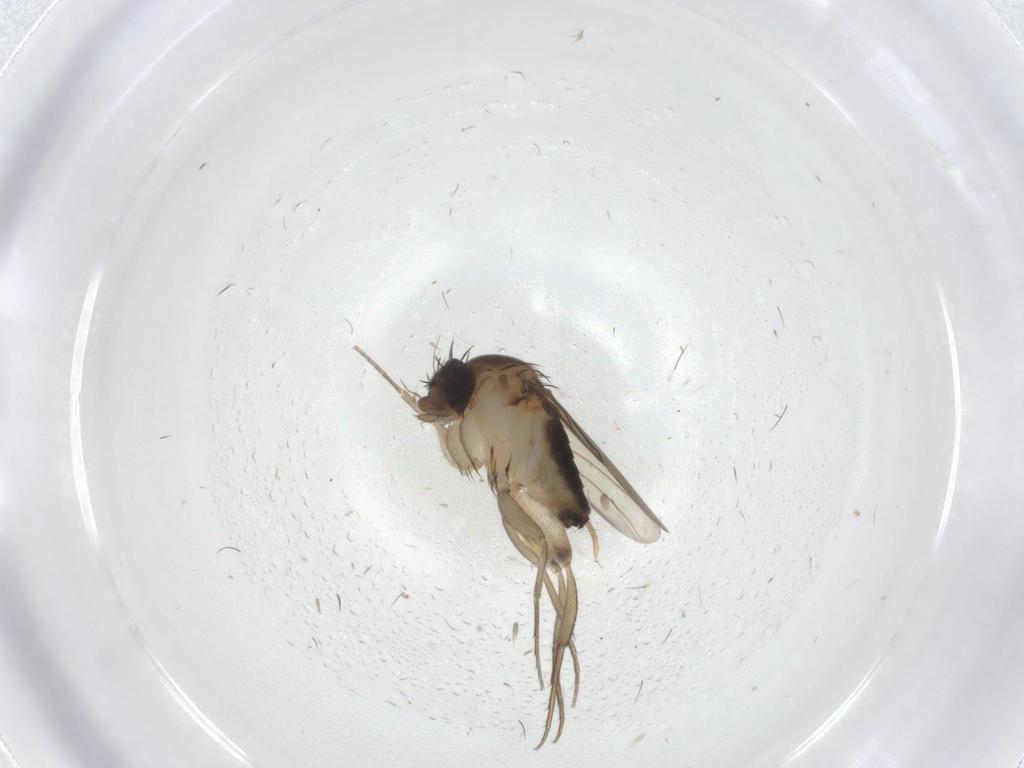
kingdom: Animalia
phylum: Arthropoda
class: Insecta
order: Diptera
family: Phoridae
